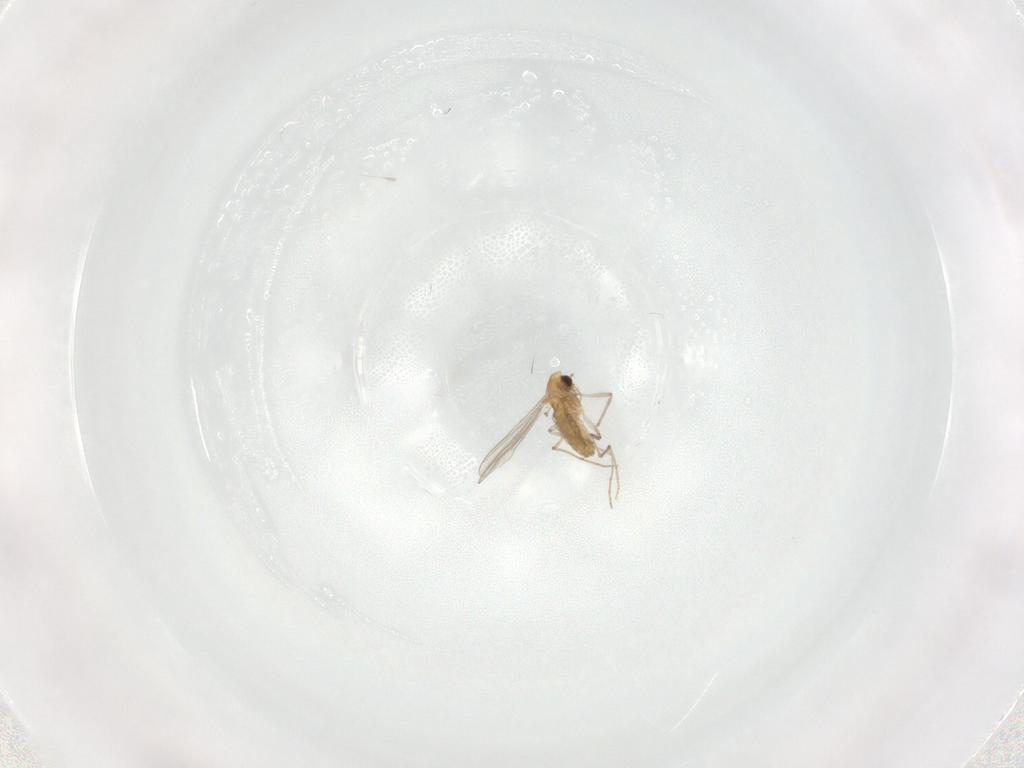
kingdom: Animalia
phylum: Arthropoda
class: Insecta
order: Diptera
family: Chironomidae
